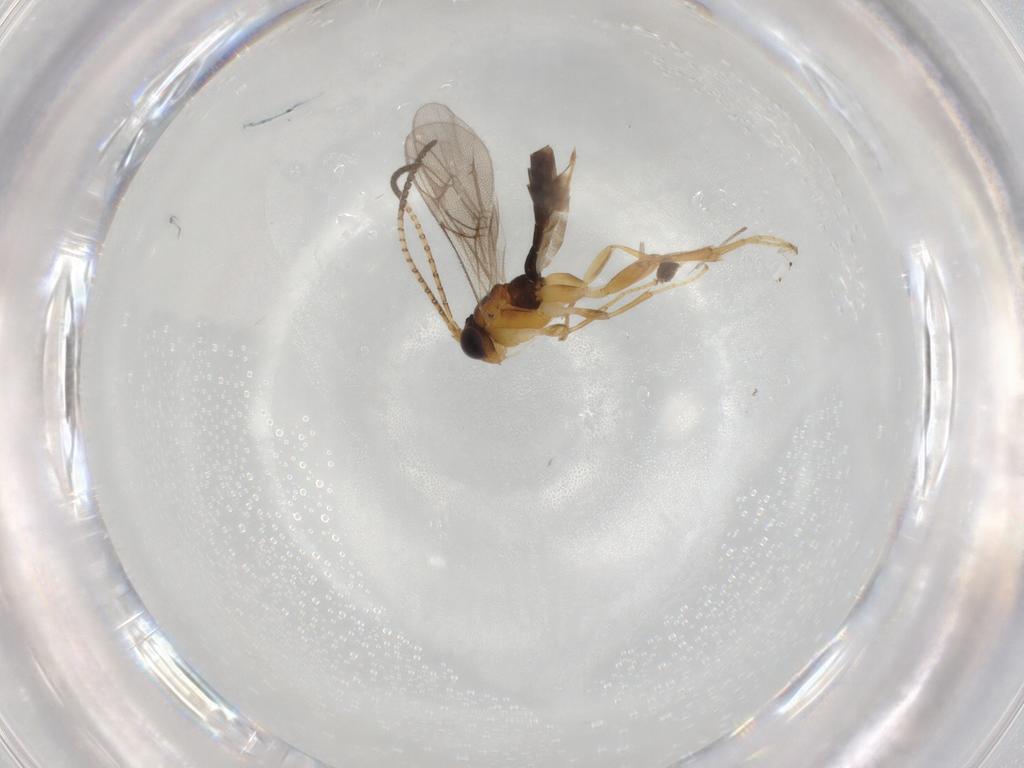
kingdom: Animalia
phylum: Arthropoda
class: Insecta
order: Hymenoptera
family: Ichneumonidae
